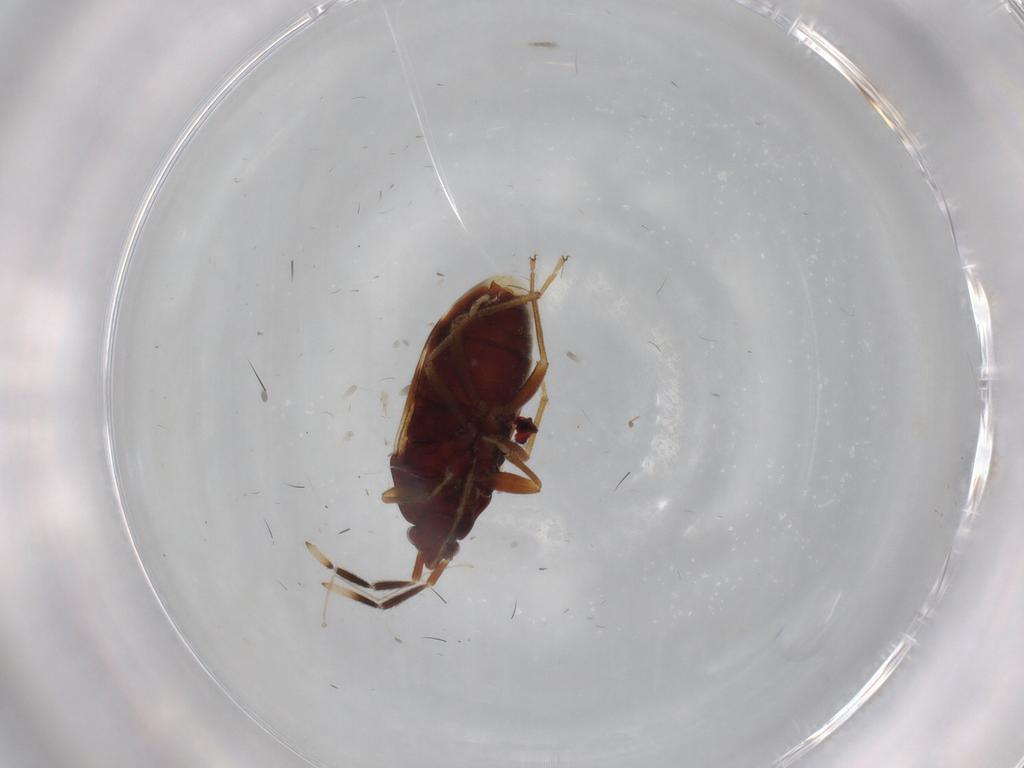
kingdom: Animalia
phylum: Arthropoda
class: Insecta
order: Hemiptera
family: Rhyparochromidae
